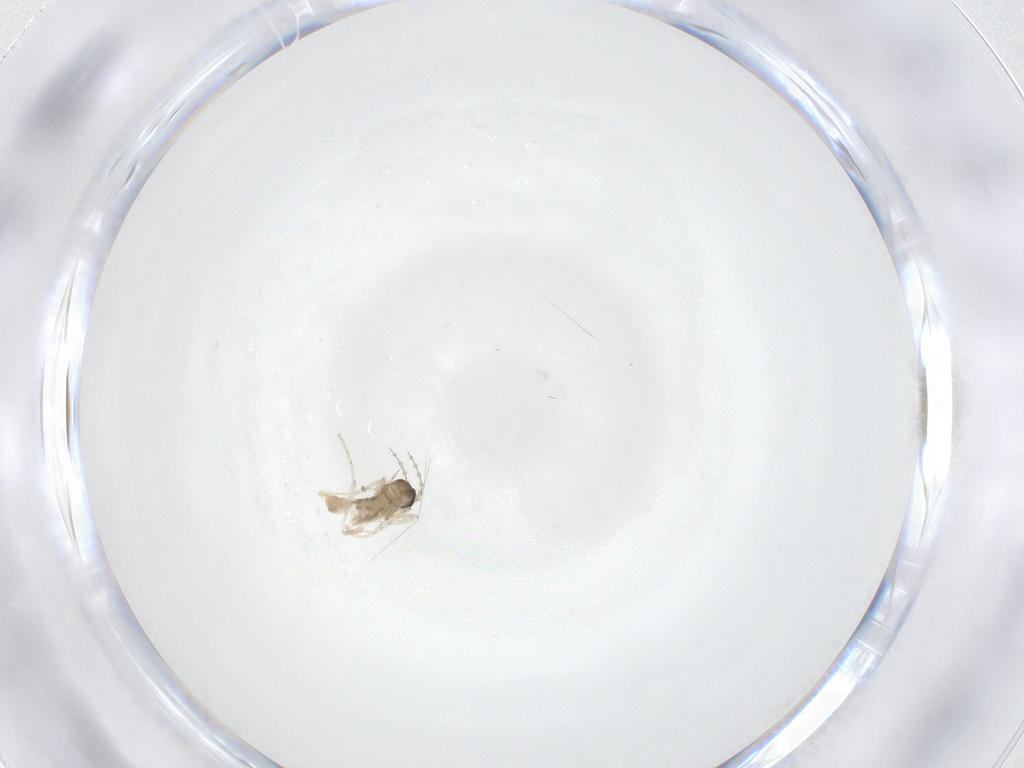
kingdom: Animalia
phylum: Arthropoda
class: Insecta
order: Diptera
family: Cecidomyiidae
